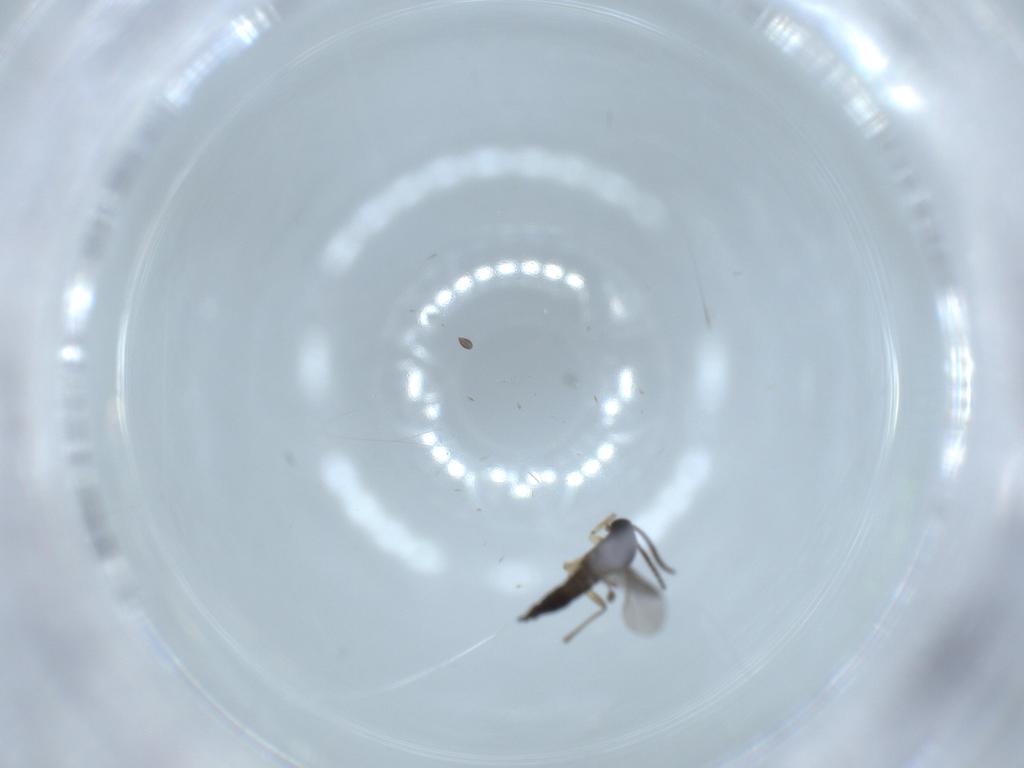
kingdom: Animalia
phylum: Arthropoda
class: Insecta
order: Diptera
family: Sciaridae
